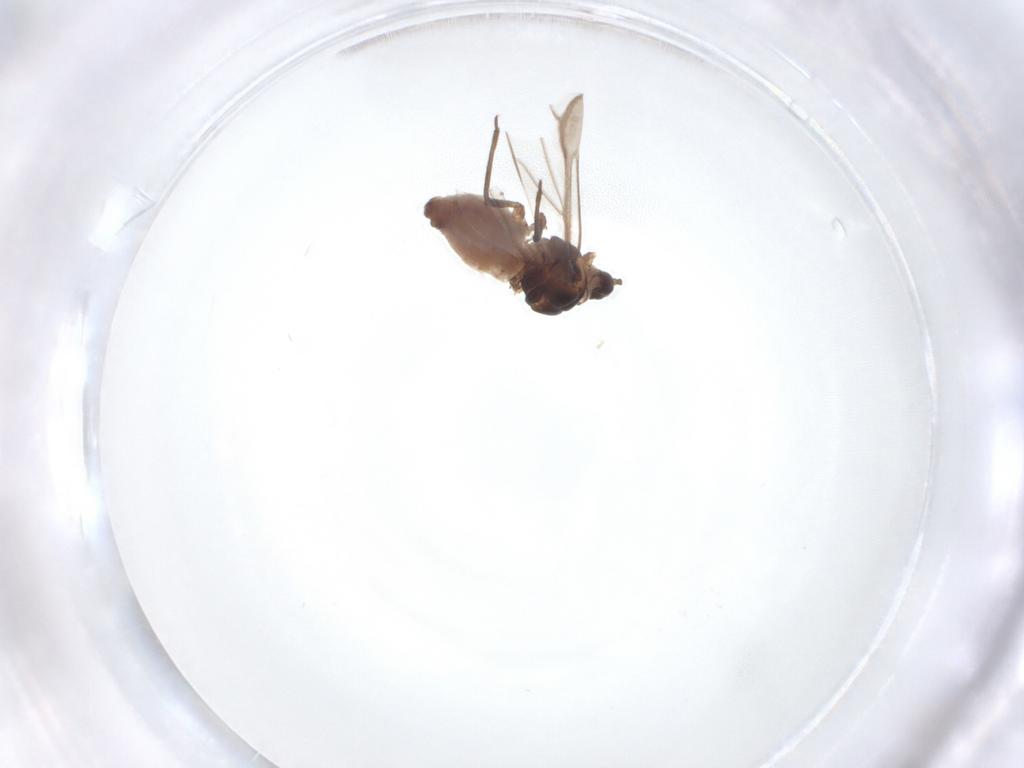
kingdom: Animalia
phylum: Arthropoda
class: Insecta
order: Hemiptera
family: Aphididae
